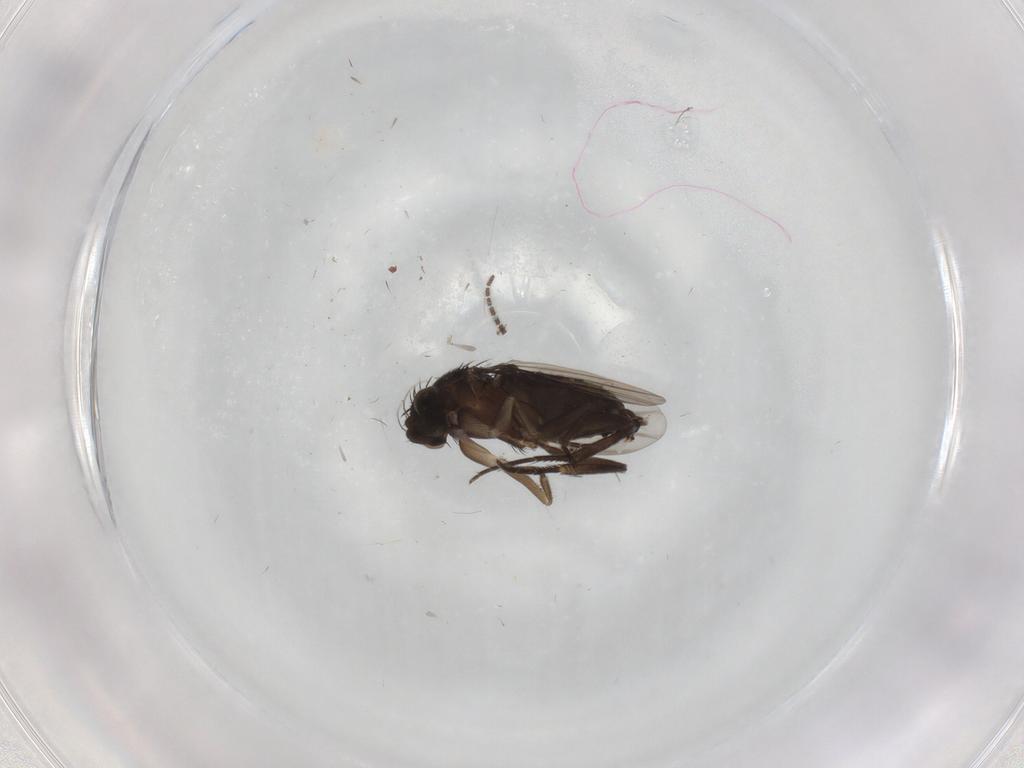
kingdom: Animalia
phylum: Arthropoda
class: Insecta
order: Diptera
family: Phoridae
